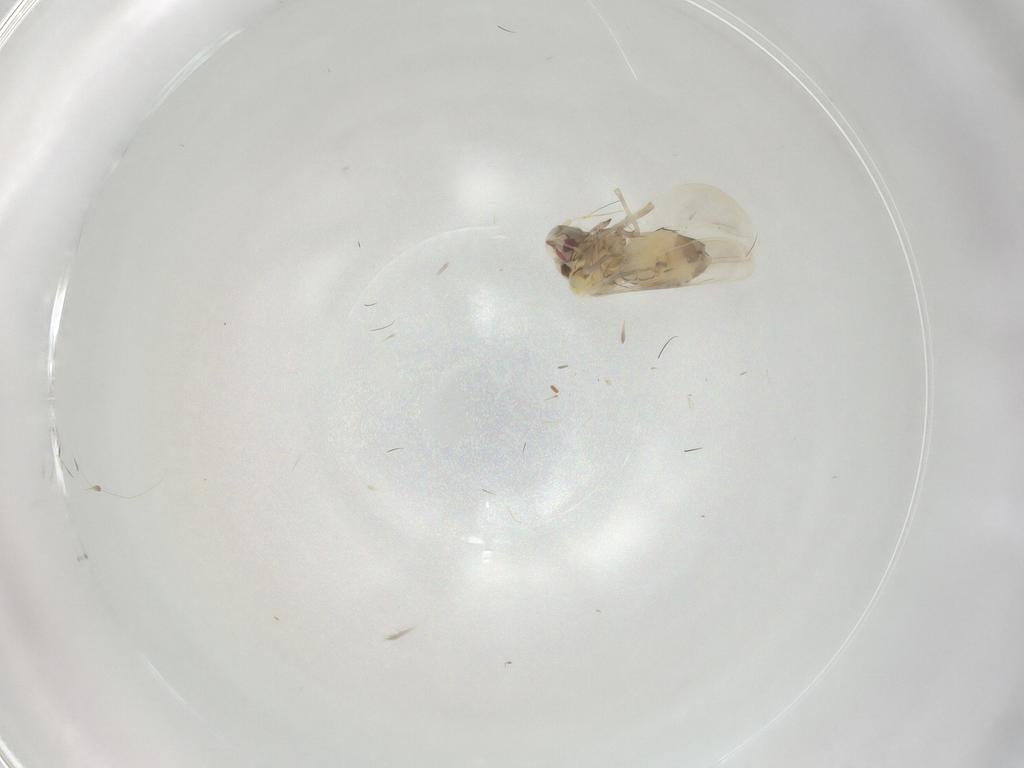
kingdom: Animalia
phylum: Arthropoda
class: Insecta
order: Hemiptera
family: Aleyrodidae
